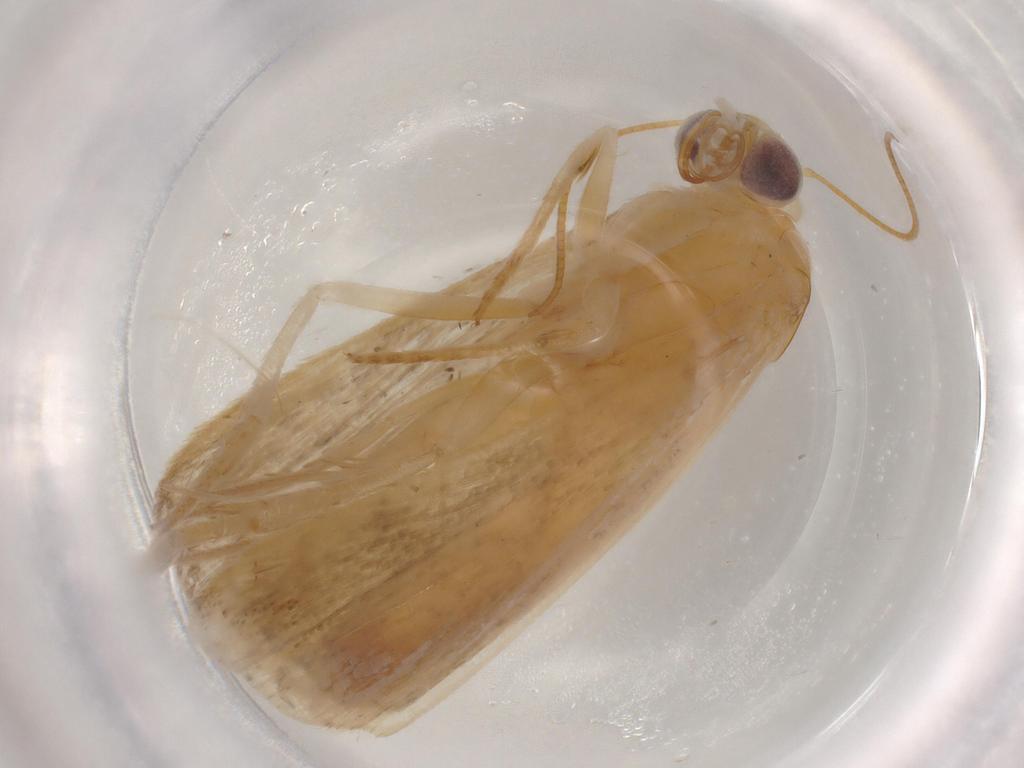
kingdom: Animalia
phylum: Arthropoda
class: Insecta
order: Lepidoptera
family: Noctuidae
